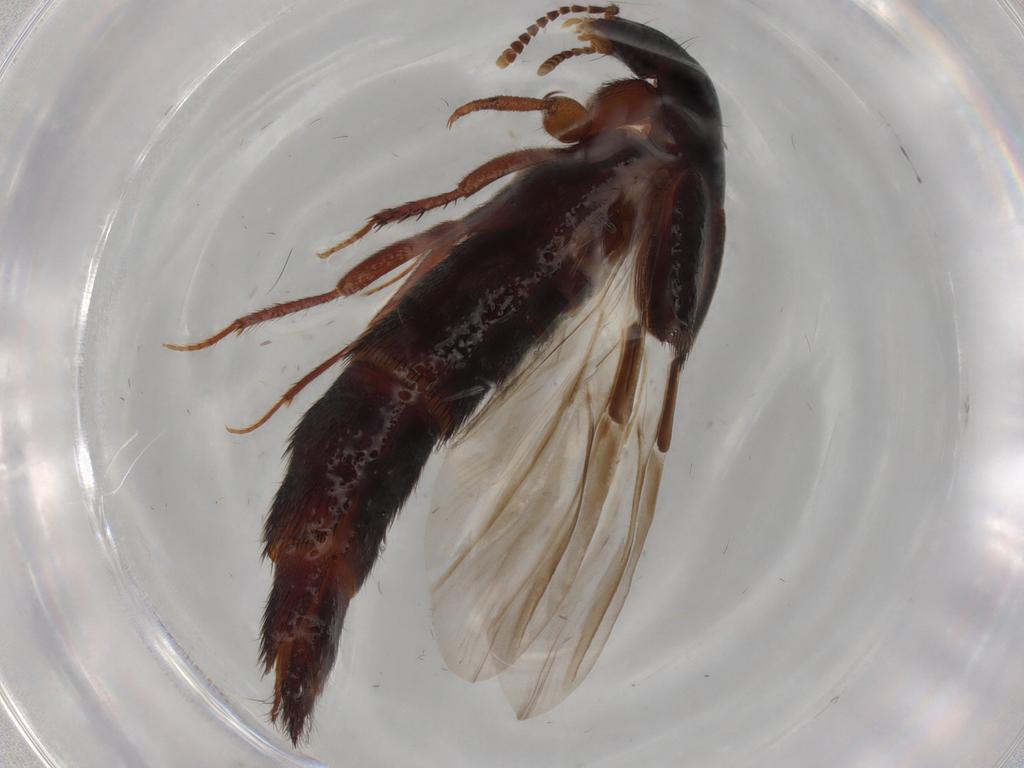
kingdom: Animalia
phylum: Arthropoda
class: Insecta
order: Coleoptera
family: Staphylinidae
